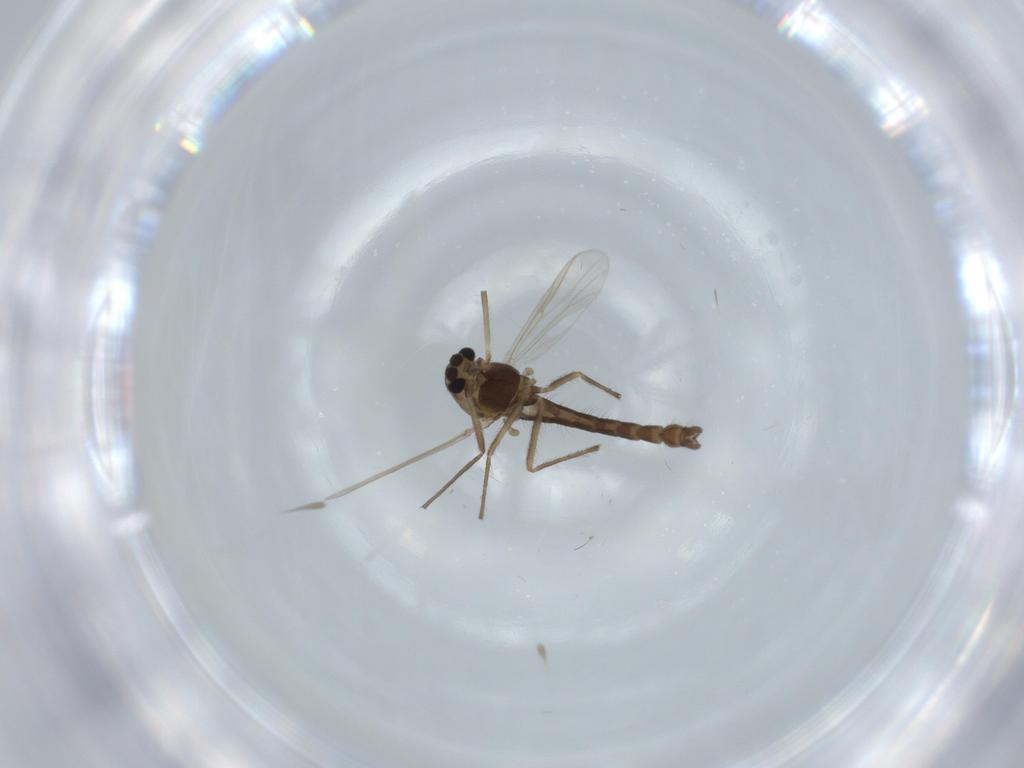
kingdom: Animalia
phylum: Arthropoda
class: Insecta
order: Diptera
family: Chironomidae
